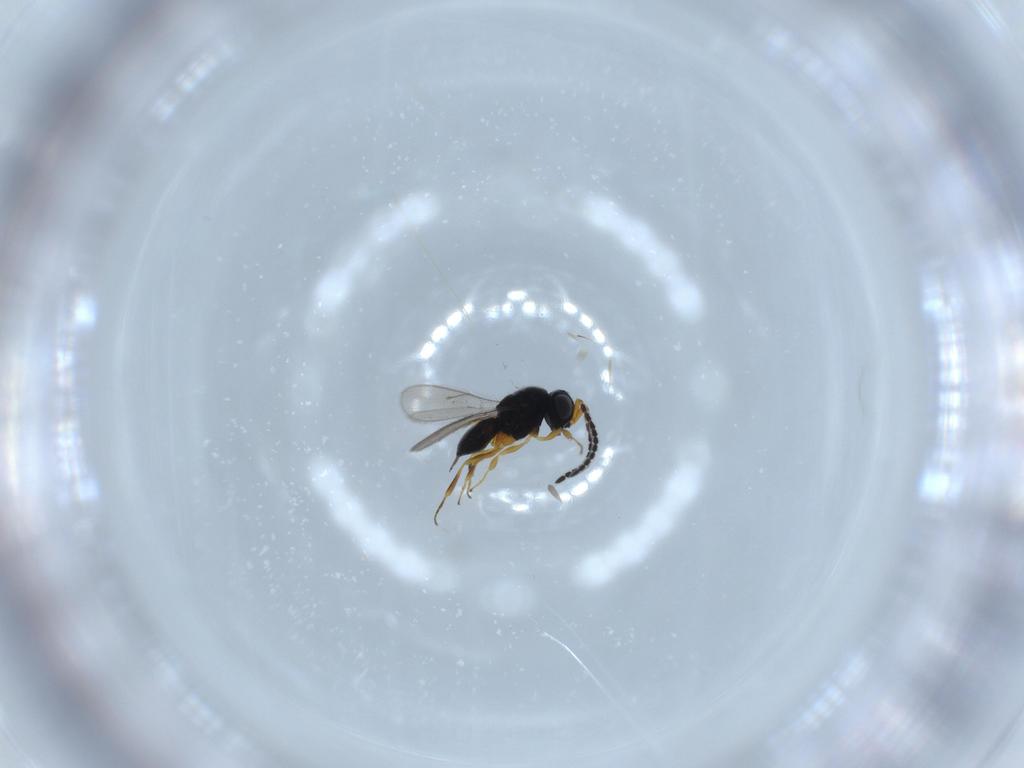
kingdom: Animalia
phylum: Arthropoda
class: Insecta
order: Hymenoptera
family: Scelionidae
